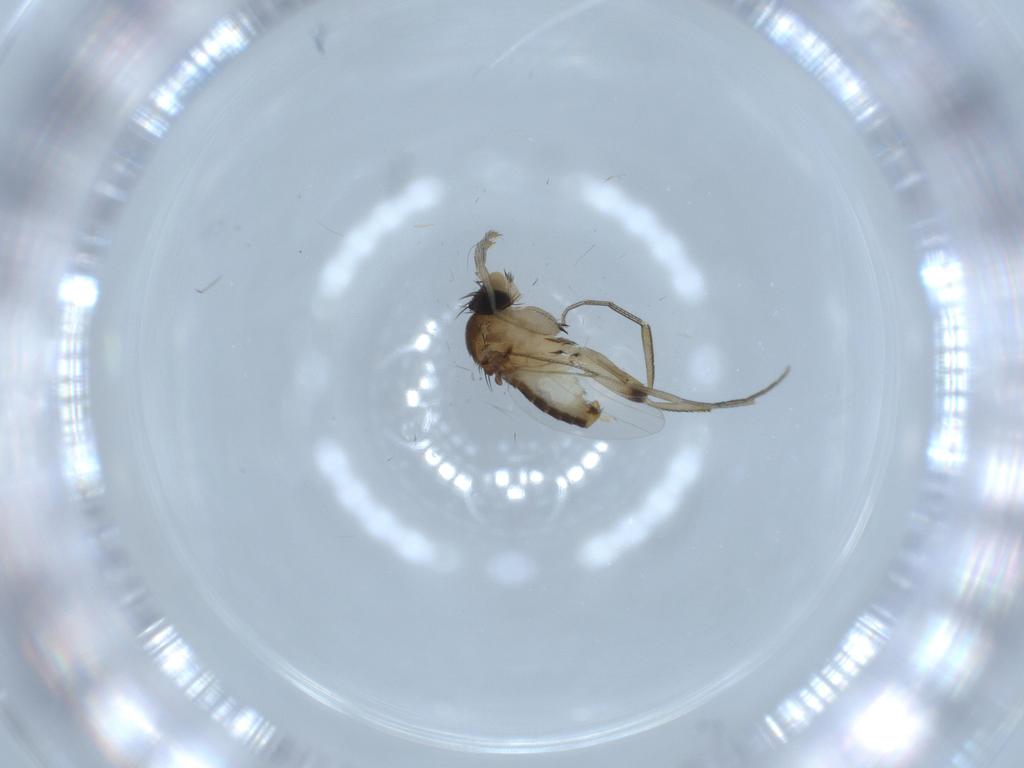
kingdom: Animalia
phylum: Arthropoda
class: Insecta
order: Diptera
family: Phoridae
